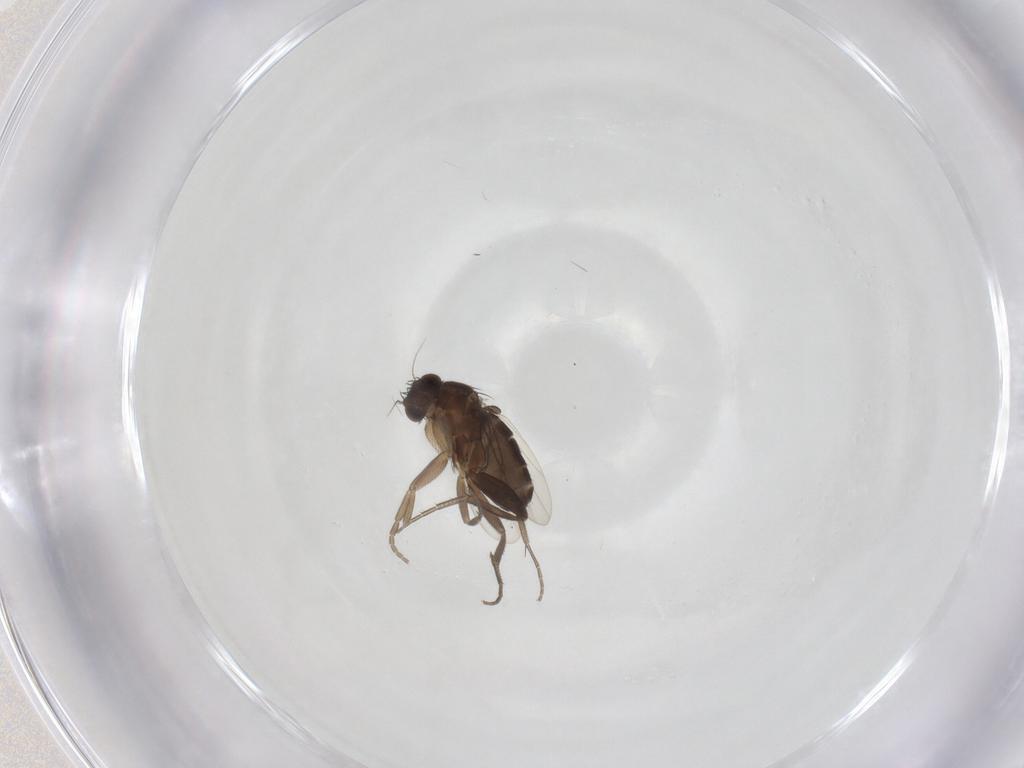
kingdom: Animalia
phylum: Arthropoda
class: Insecta
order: Diptera
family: Phoridae
